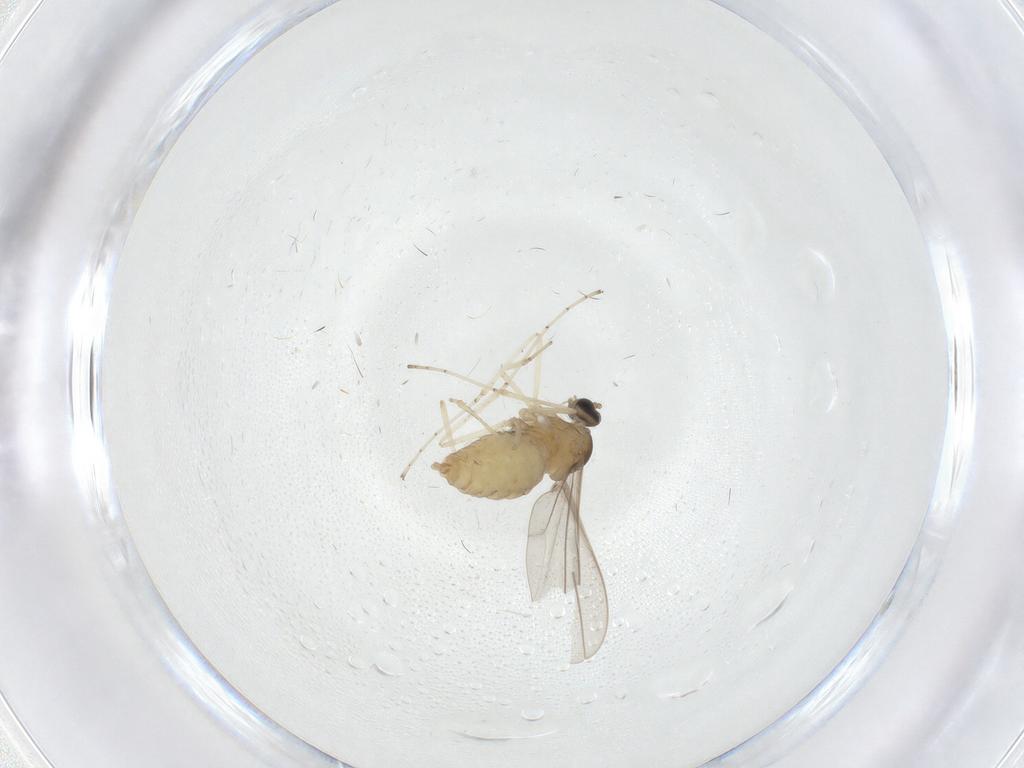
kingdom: Animalia
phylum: Arthropoda
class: Insecta
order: Diptera
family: Cecidomyiidae
